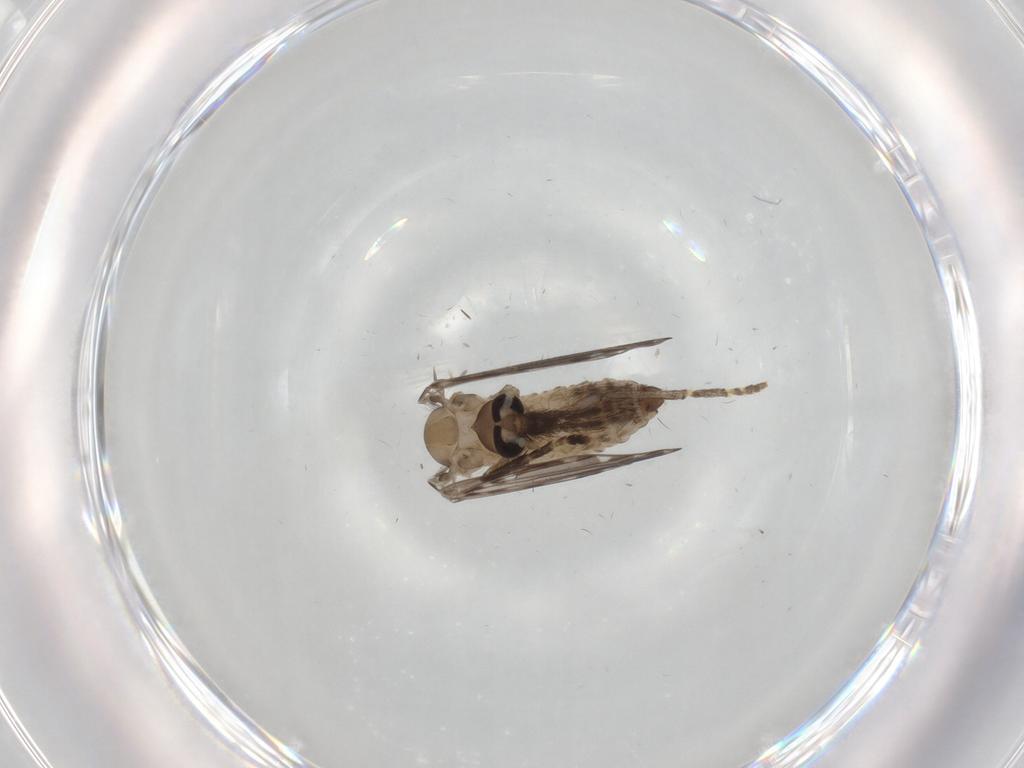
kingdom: Animalia
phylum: Arthropoda
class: Insecta
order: Diptera
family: Psychodidae
